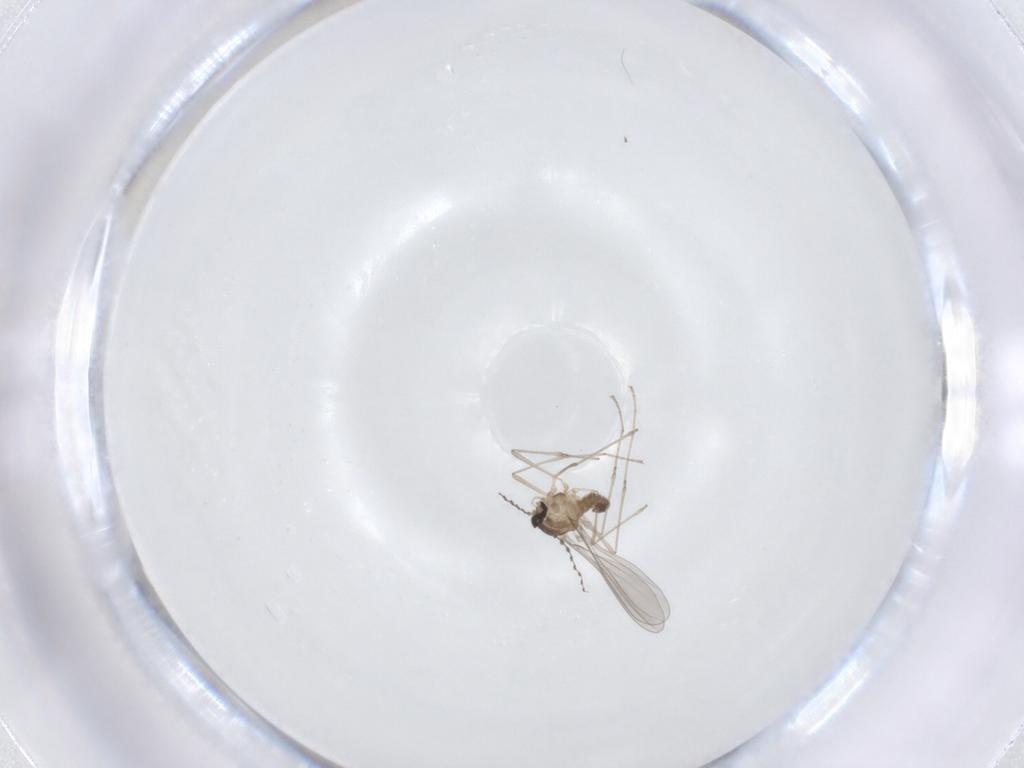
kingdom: Animalia
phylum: Arthropoda
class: Insecta
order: Diptera
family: Cecidomyiidae
